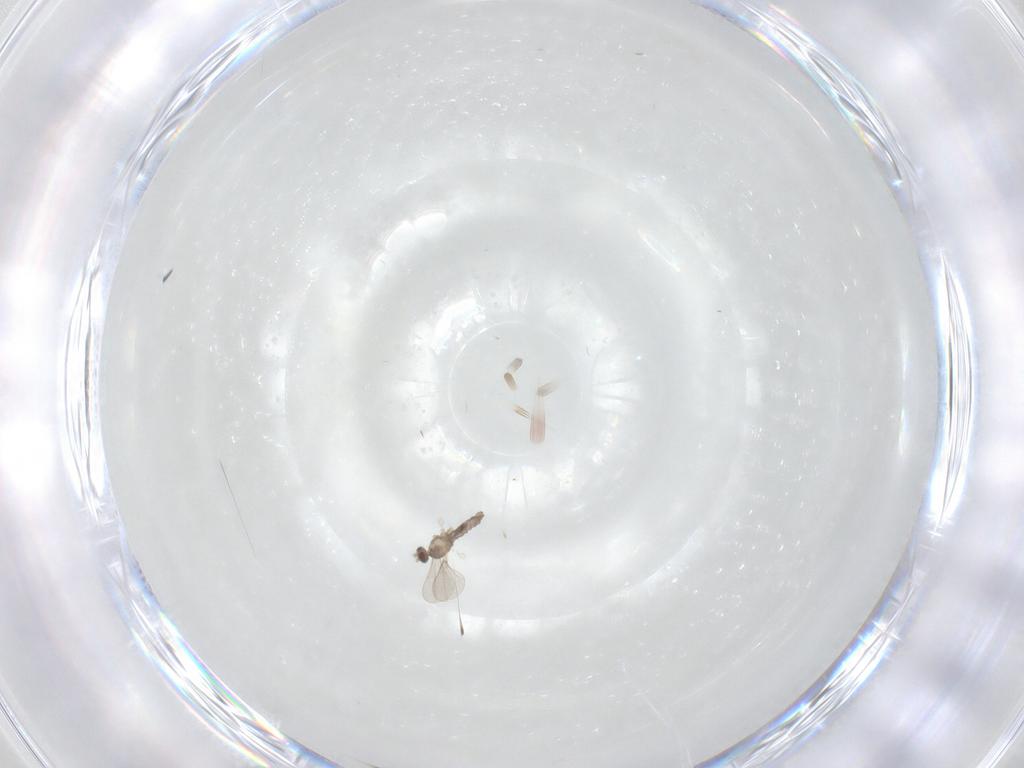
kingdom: Animalia
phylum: Arthropoda
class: Insecta
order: Diptera
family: Cecidomyiidae
